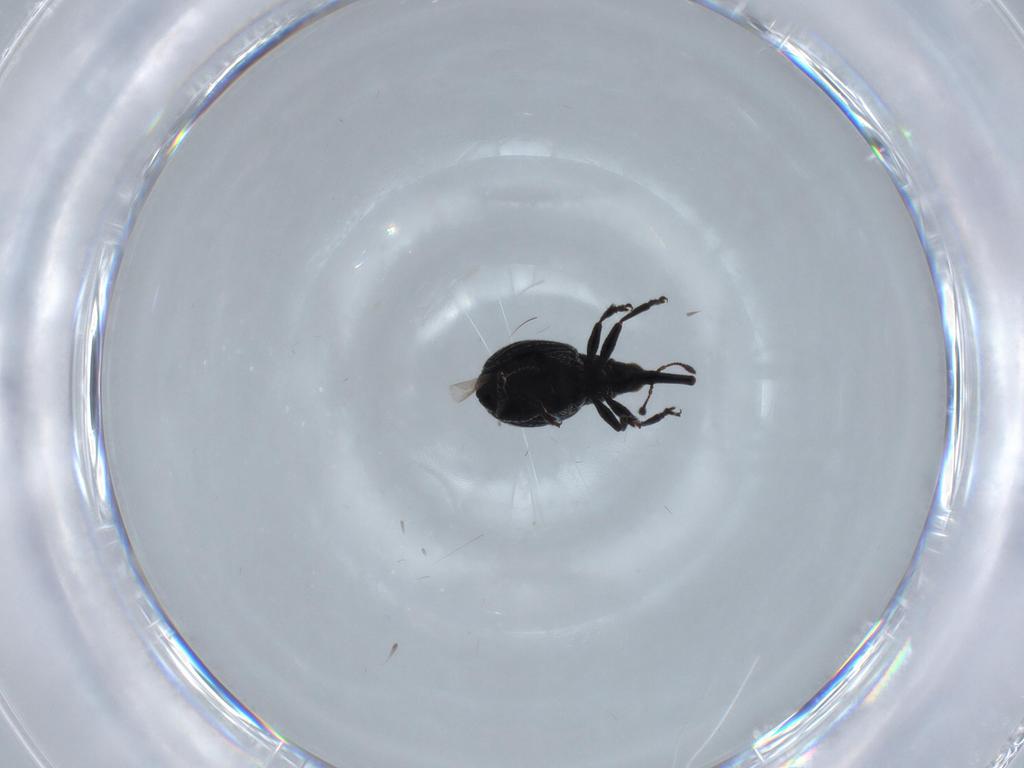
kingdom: Animalia
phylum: Arthropoda
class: Insecta
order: Coleoptera
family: Brentidae
